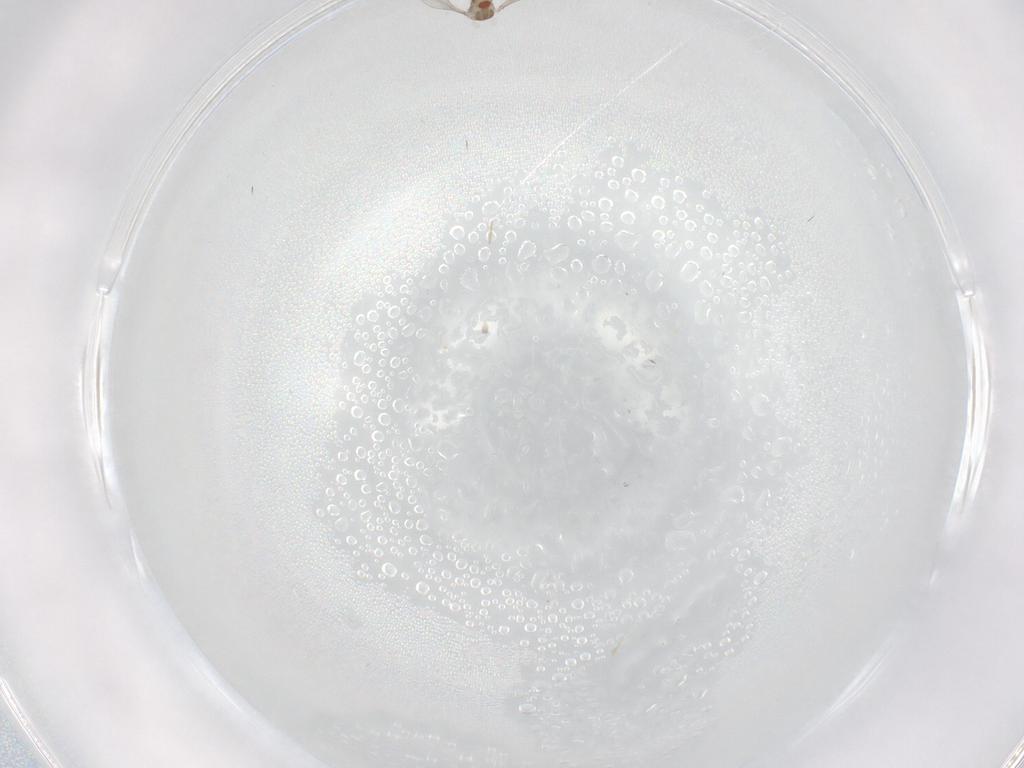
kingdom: Animalia
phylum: Arthropoda
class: Insecta
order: Diptera
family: Cecidomyiidae
